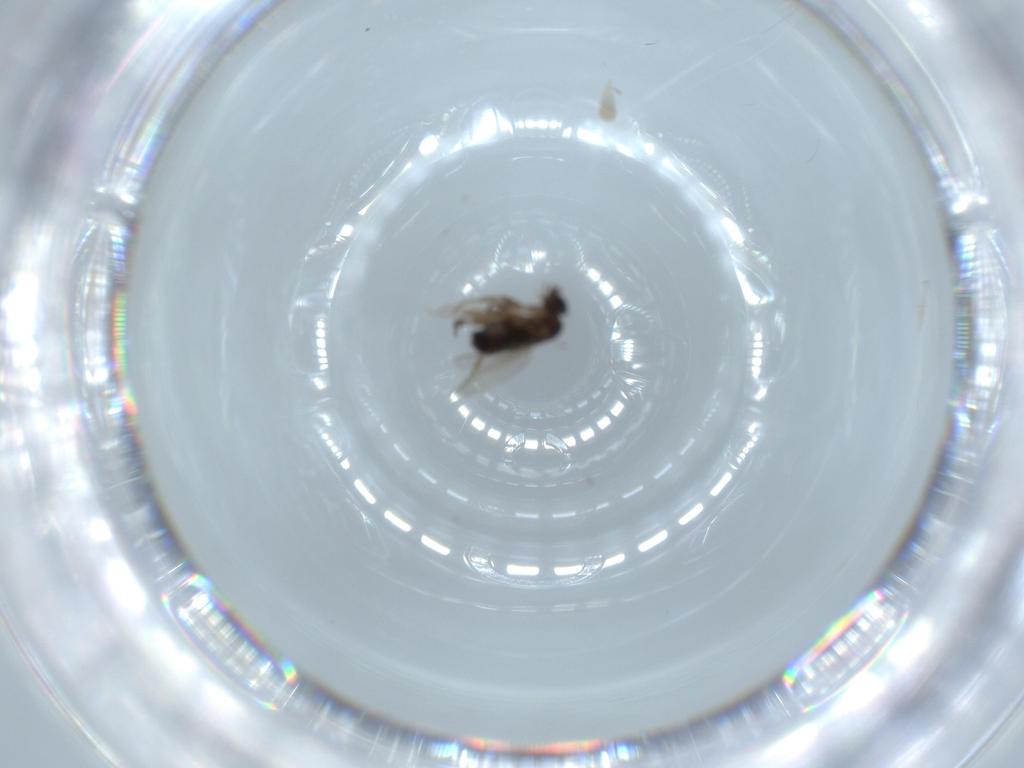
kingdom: Animalia
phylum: Arthropoda
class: Insecta
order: Diptera
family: Phoridae
